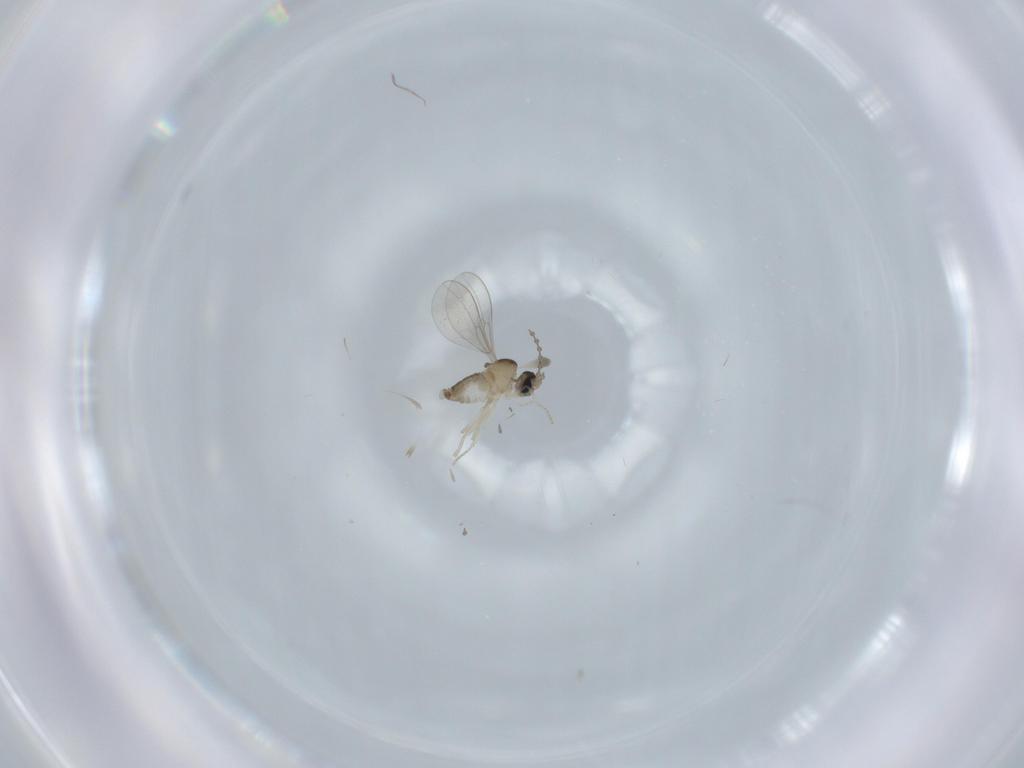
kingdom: Animalia
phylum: Arthropoda
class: Insecta
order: Diptera
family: Cecidomyiidae
